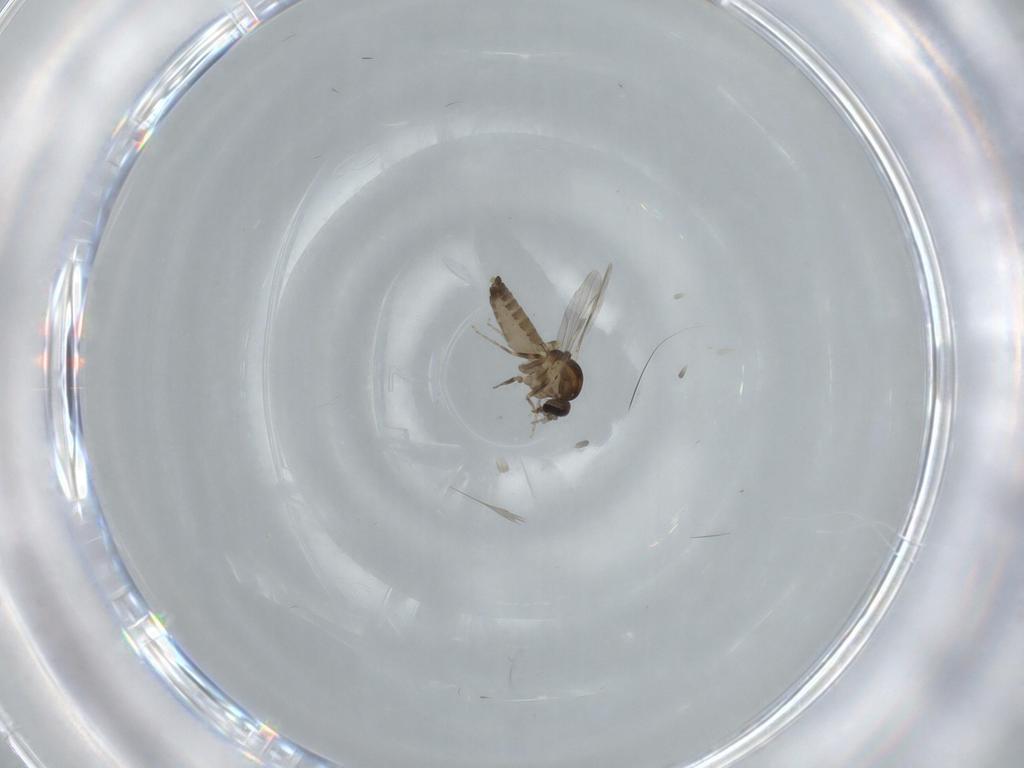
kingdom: Animalia
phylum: Arthropoda
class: Insecta
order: Diptera
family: Ceratopogonidae
